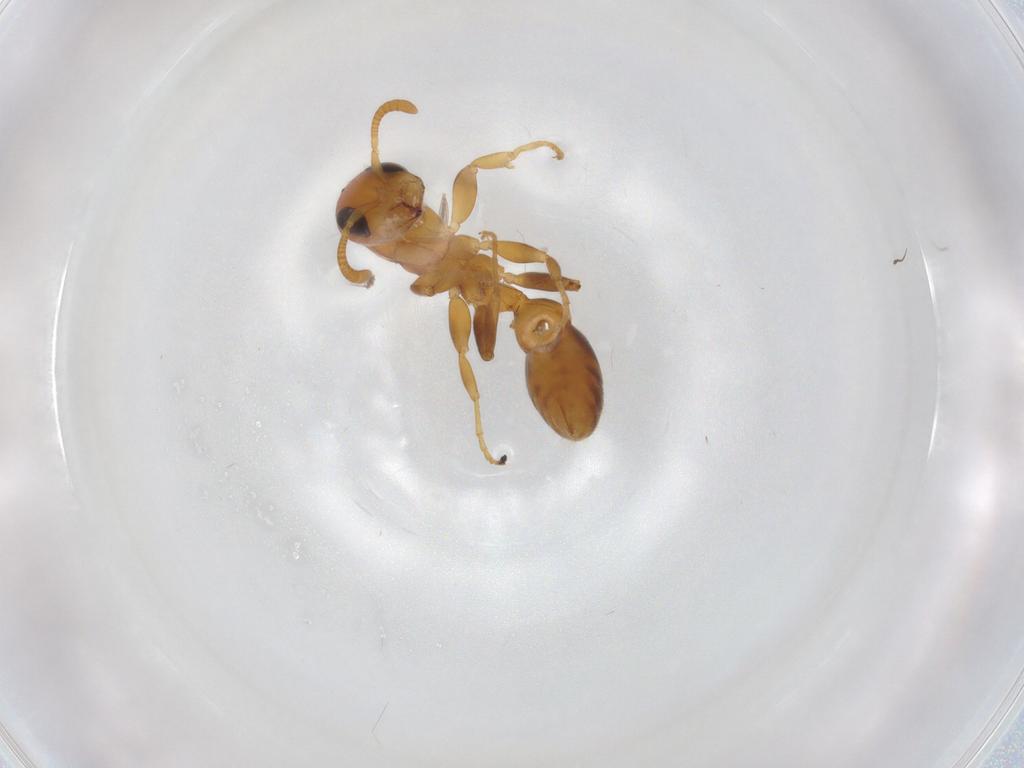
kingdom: Animalia
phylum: Arthropoda
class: Insecta
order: Hymenoptera
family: Formicidae
